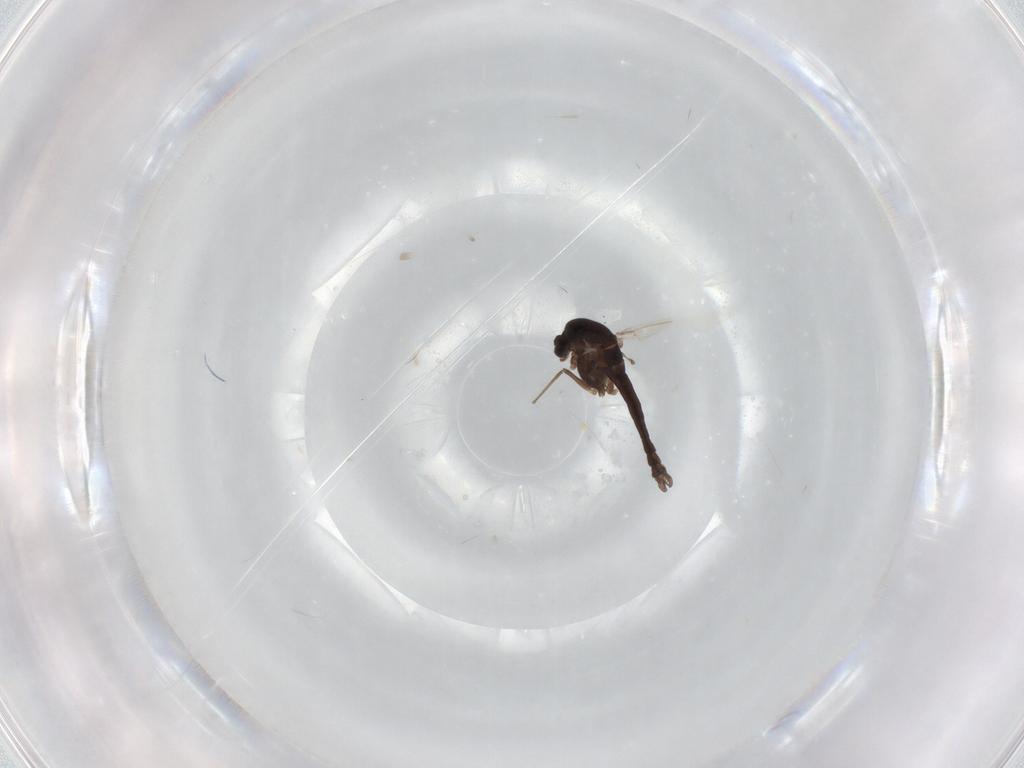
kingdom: Animalia
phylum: Arthropoda
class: Insecta
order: Diptera
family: Chironomidae
